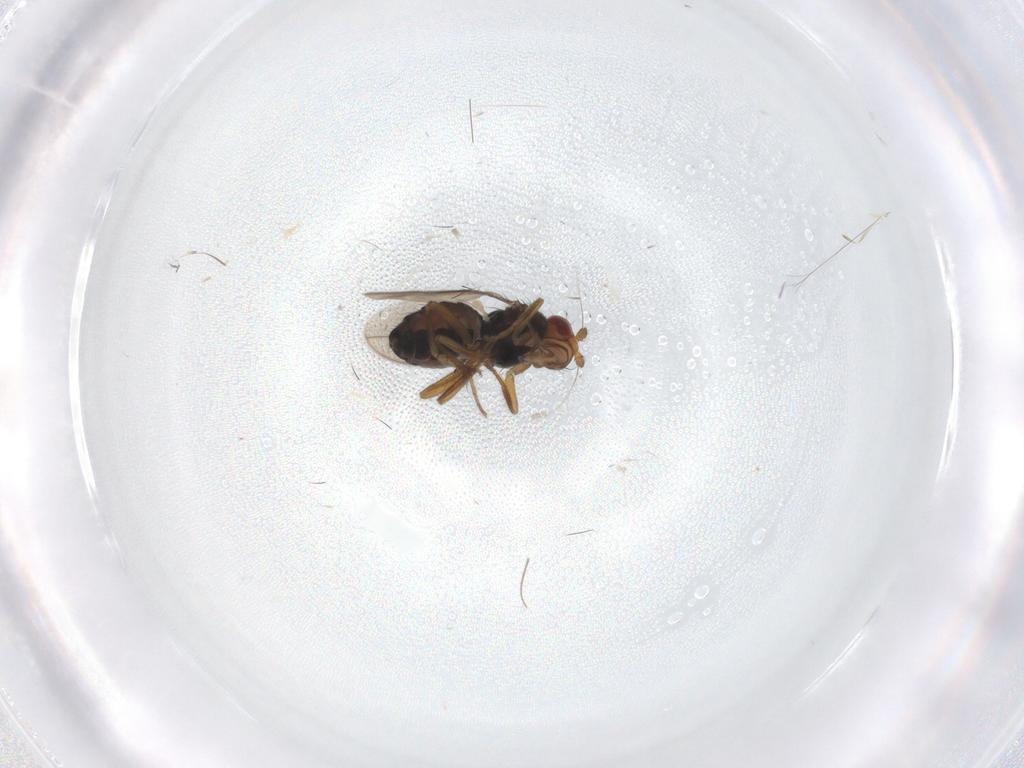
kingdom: Animalia
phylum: Arthropoda
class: Insecta
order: Diptera
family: Sphaeroceridae
